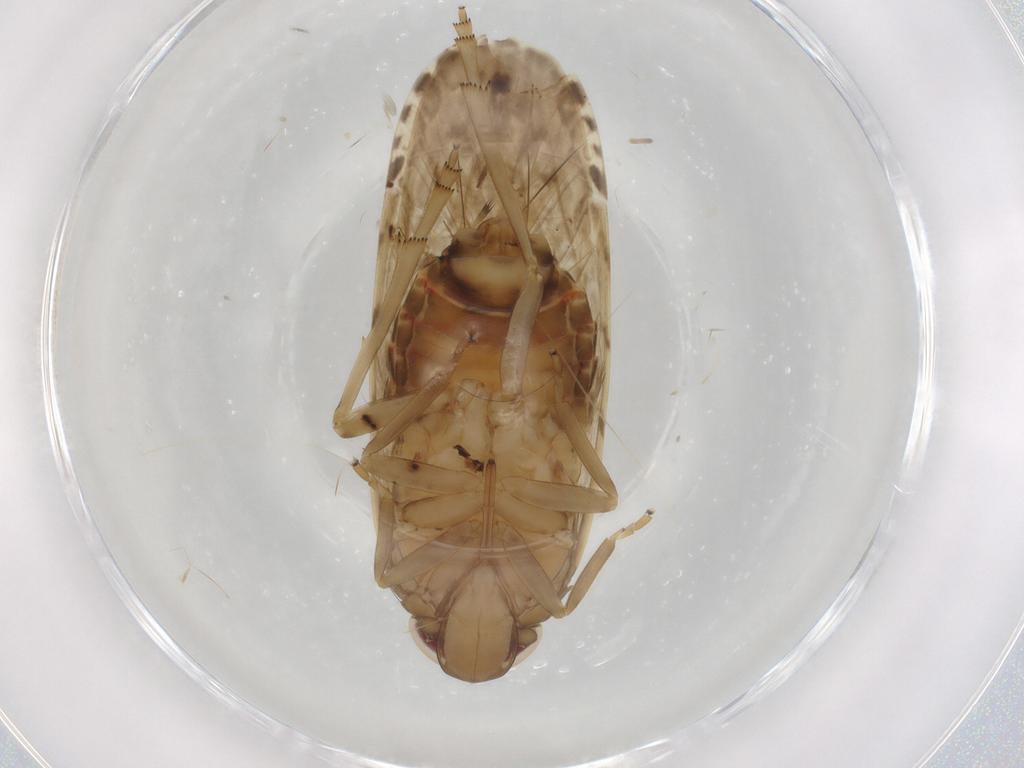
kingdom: Animalia
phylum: Arthropoda
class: Insecta
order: Hemiptera
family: Cicadellidae
